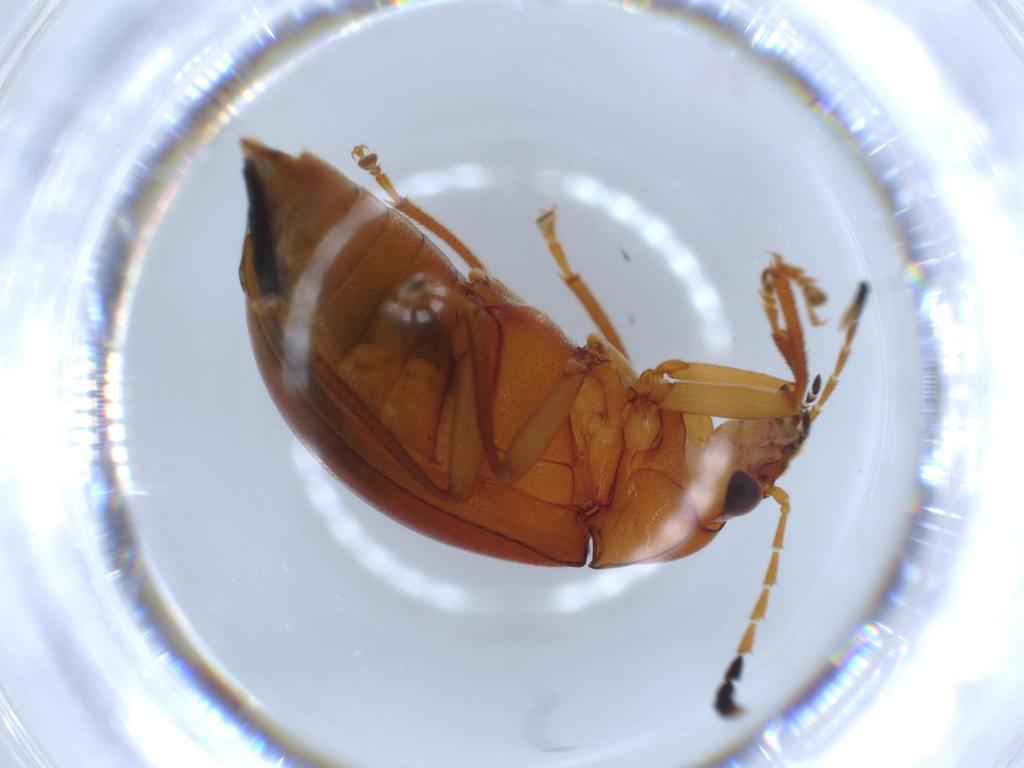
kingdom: Animalia
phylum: Arthropoda
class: Insecta
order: Coleoptera
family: Ptilodactylidae
